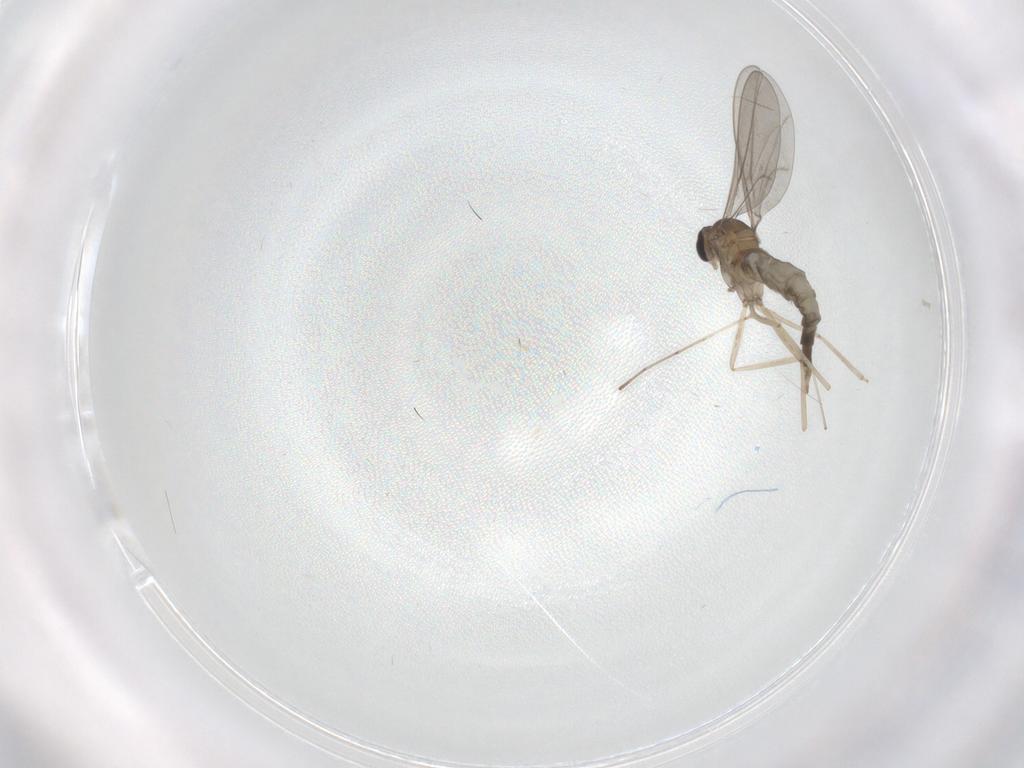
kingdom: Animalia
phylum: Arthropoda
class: Insecta
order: Diptera
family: Sciaridae
